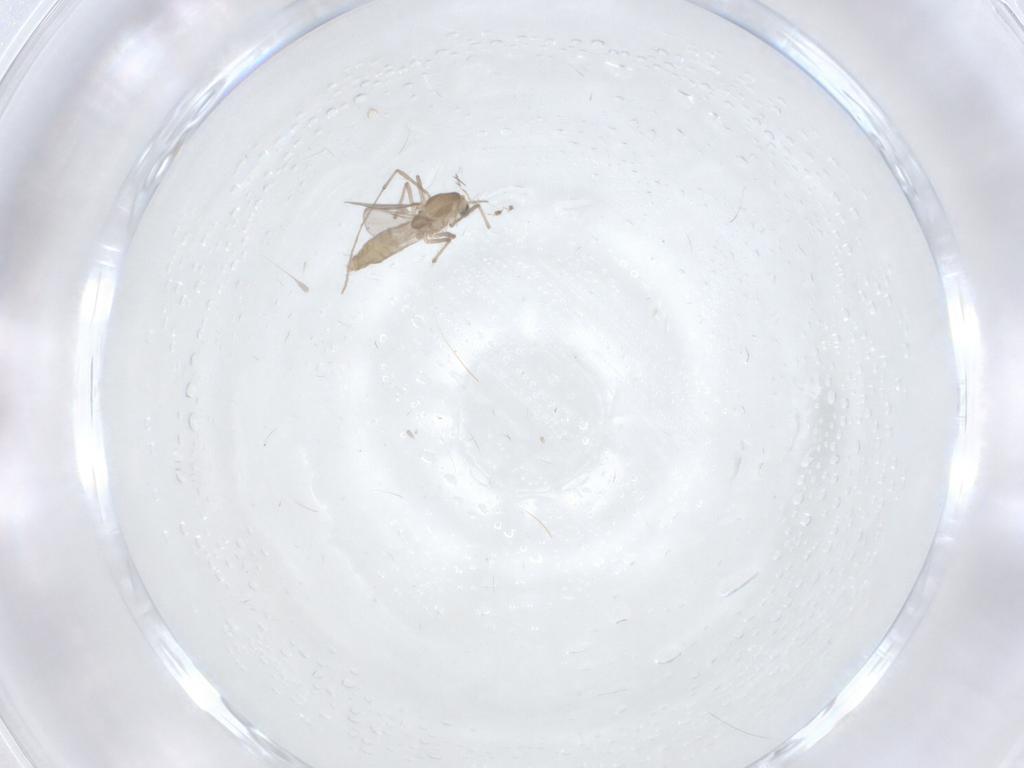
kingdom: Animalia
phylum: Arthropoda
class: Insecta
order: Diptera
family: Chironomidae
